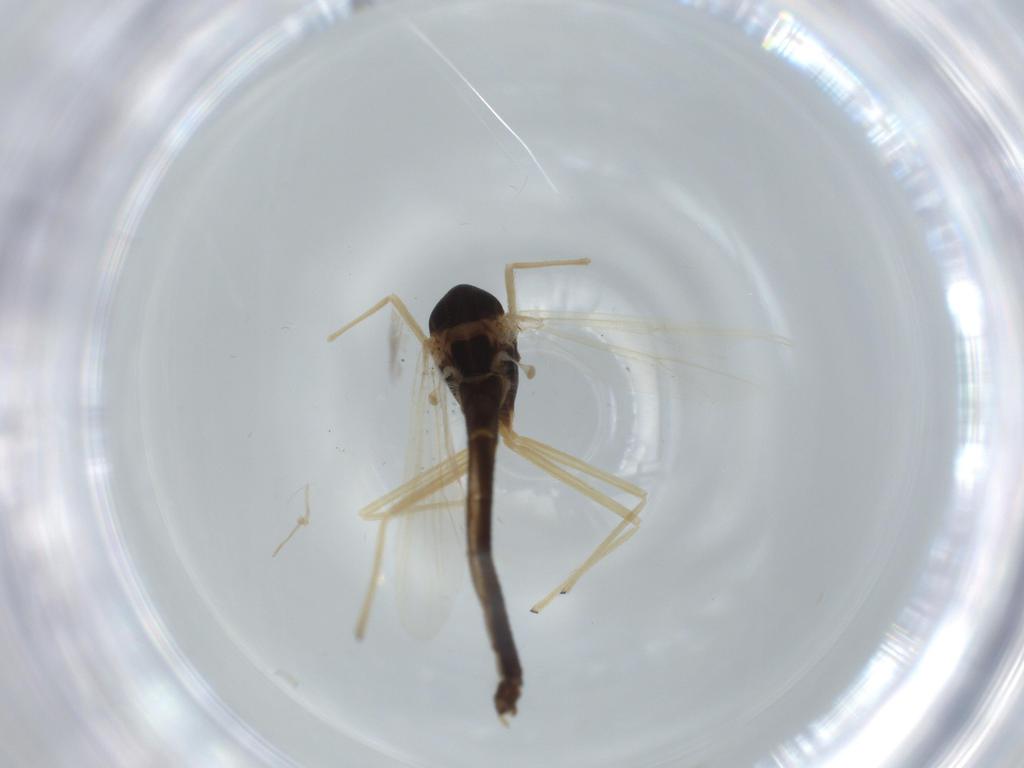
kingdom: Animalia
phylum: Arthropoda
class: Insecta
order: Diptera
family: Chironomidae
